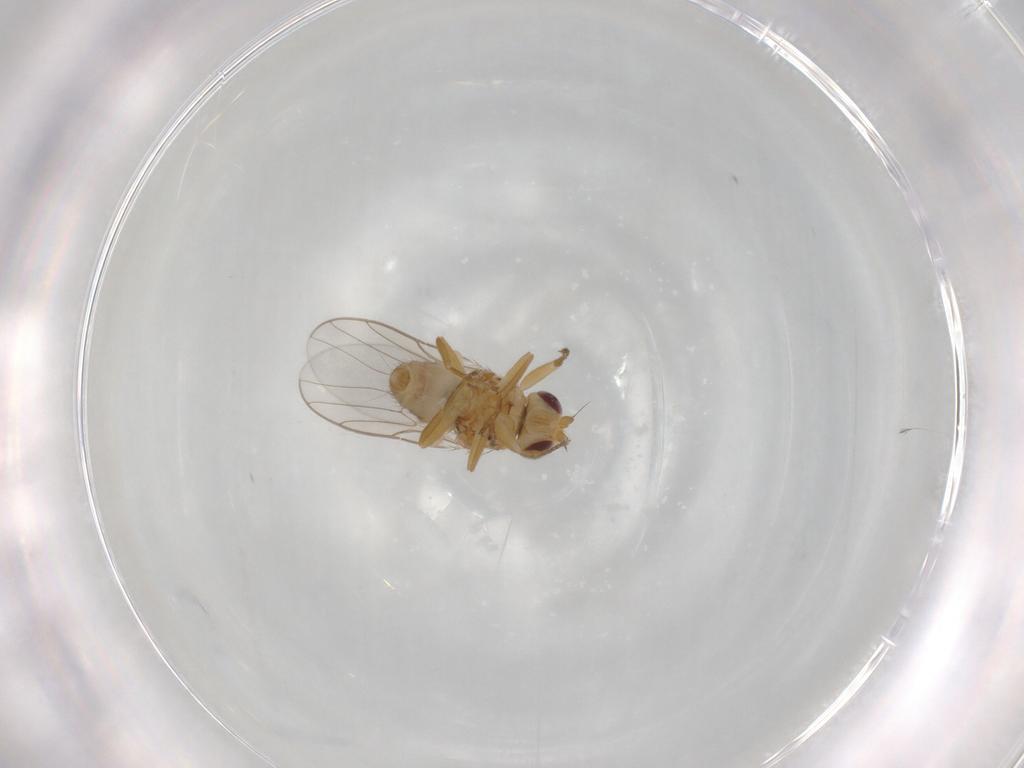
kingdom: Animalia
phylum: Arthropoda
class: Insecta
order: Diptera
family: Chloropidae
